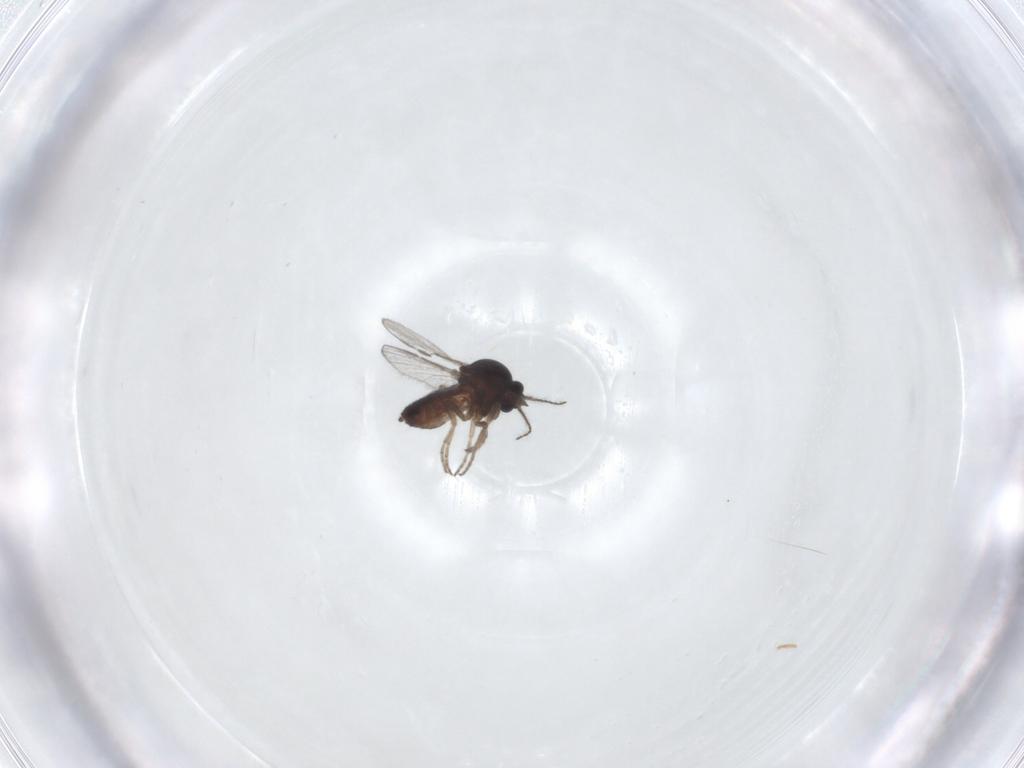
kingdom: Animalia
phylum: Arthropoda
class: Insecta
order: Diptera
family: Ceratopogonidae
